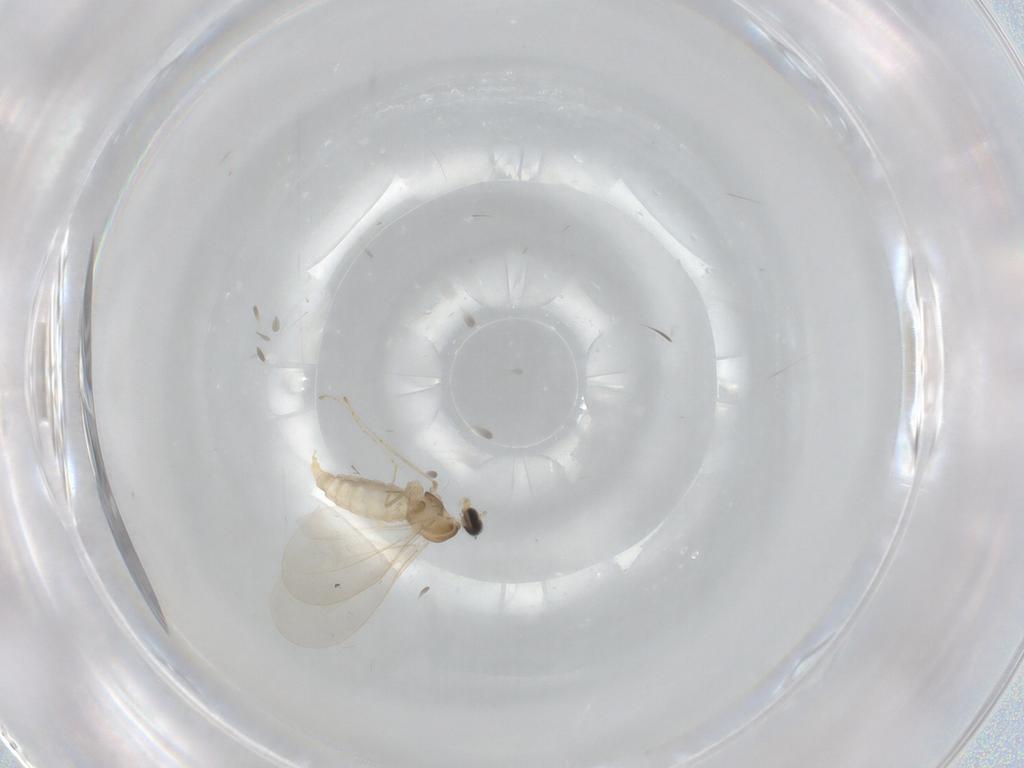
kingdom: Animalia
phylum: Arthropoda
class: Insecta
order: Diptera
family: Cecidomyiidae
